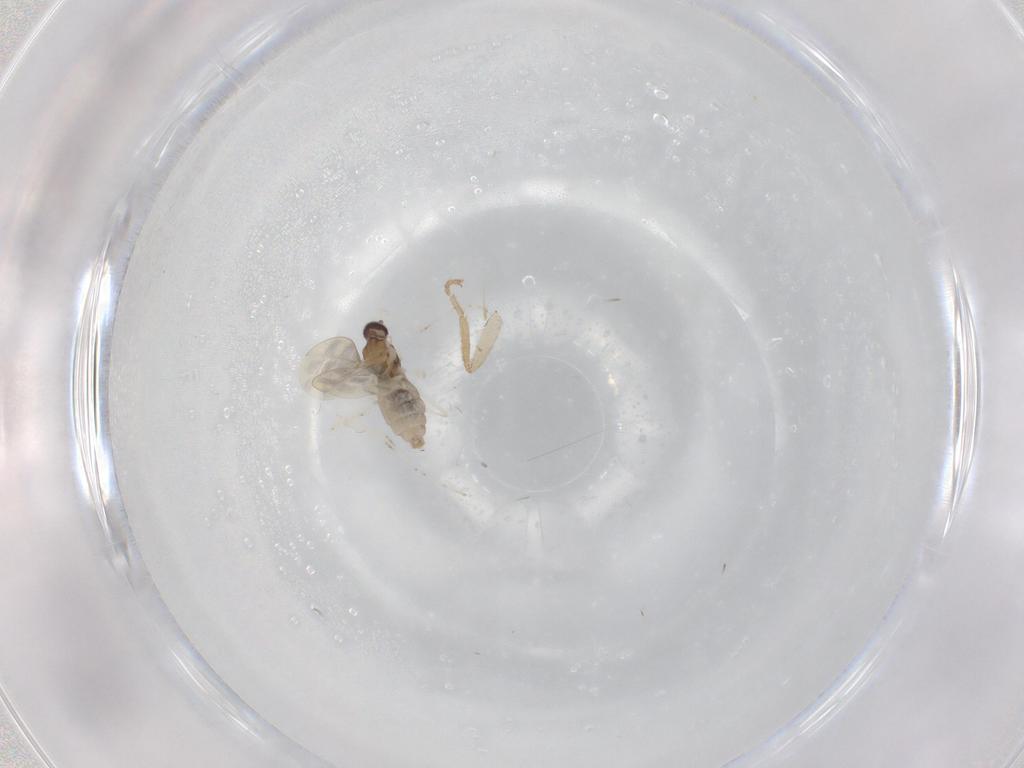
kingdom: Animalia
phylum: Arthropoda
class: Insecta
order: Diptera
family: Cecidomyiidae
